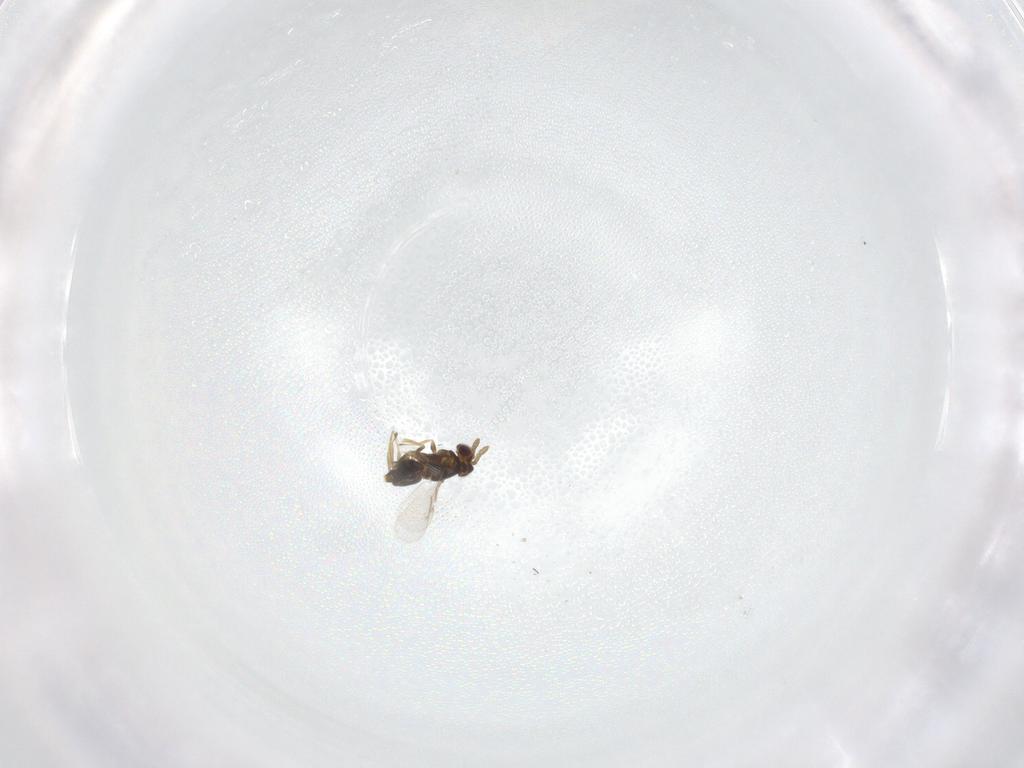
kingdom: Animalia
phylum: Arthropoda
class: Insecta
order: Hymenoptera
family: Aphelinidae
